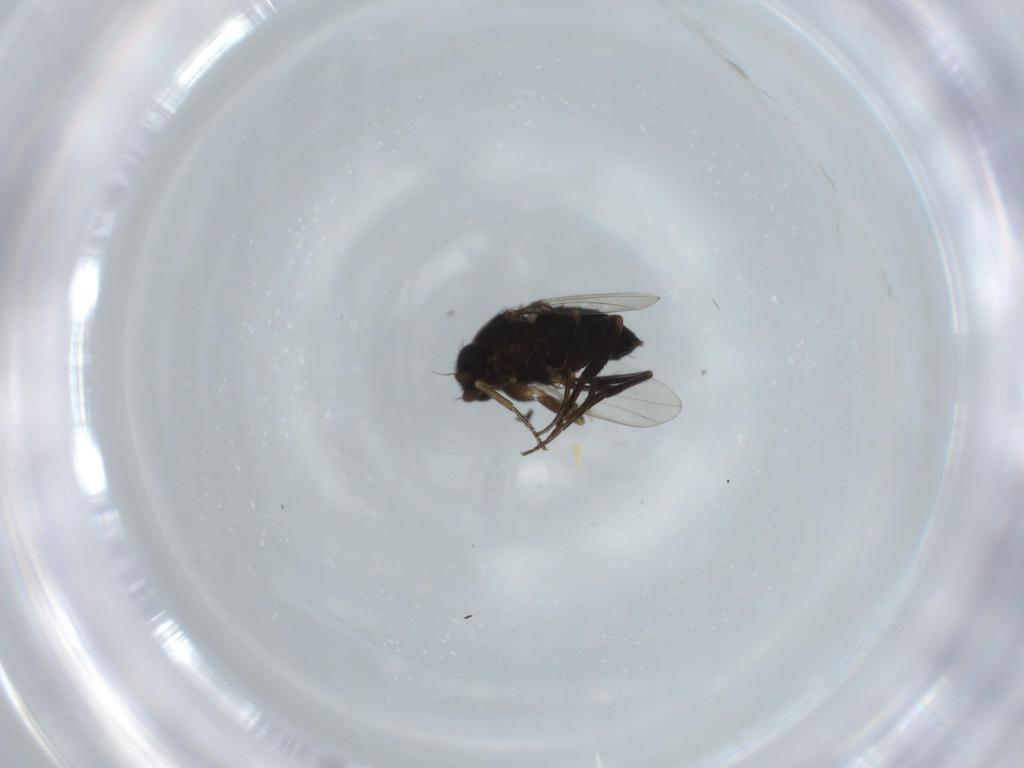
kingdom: Animalia
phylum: Arthropoda
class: Insecta
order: Diptera
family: Phoridae
